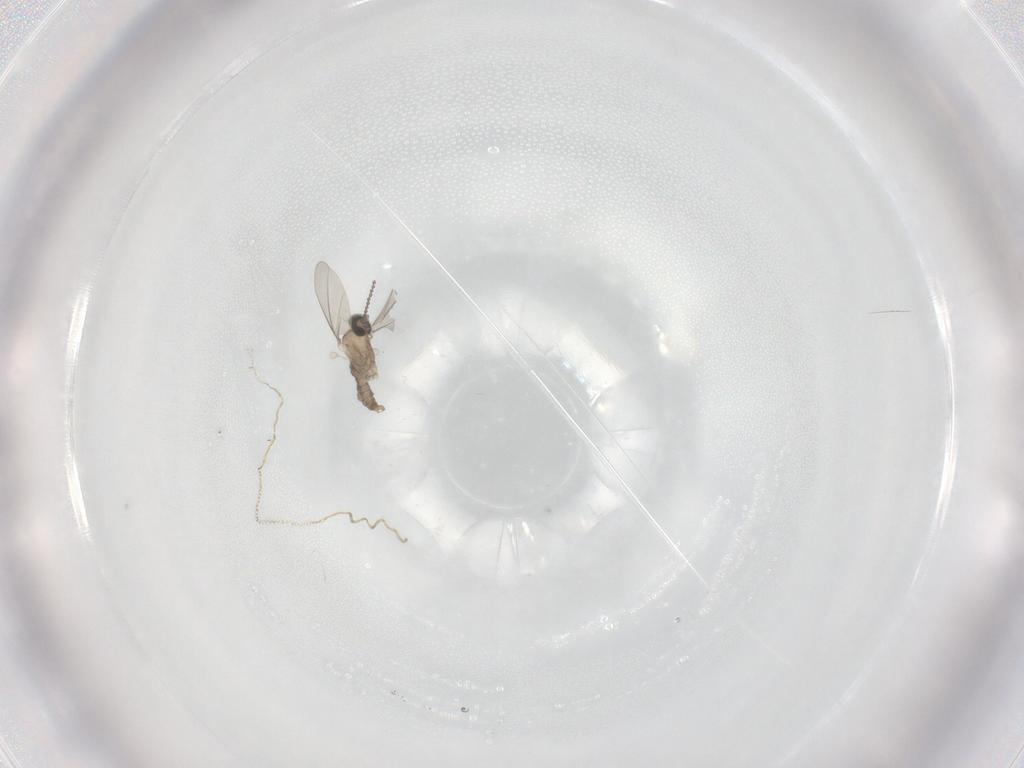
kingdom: Animalia
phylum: Arthropoda
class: Insecta
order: Diptera
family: Cecidomyiidae
